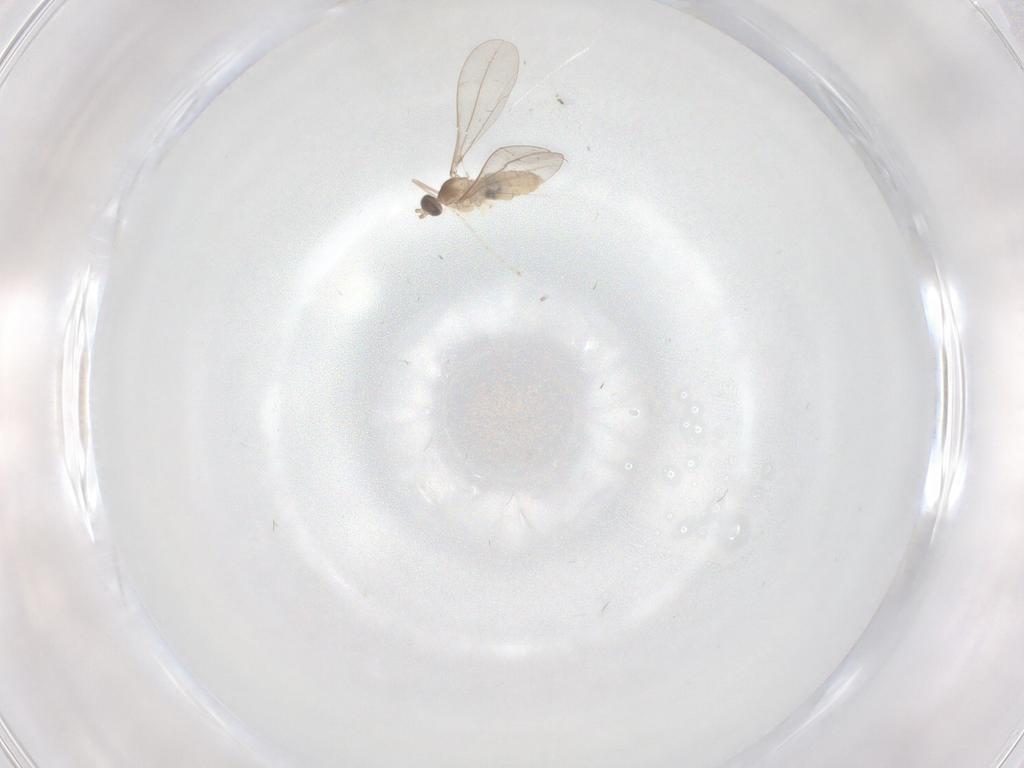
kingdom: Animalia
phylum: Arthropoda
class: Insecta
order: Diptera
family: Cecidomyiidae
